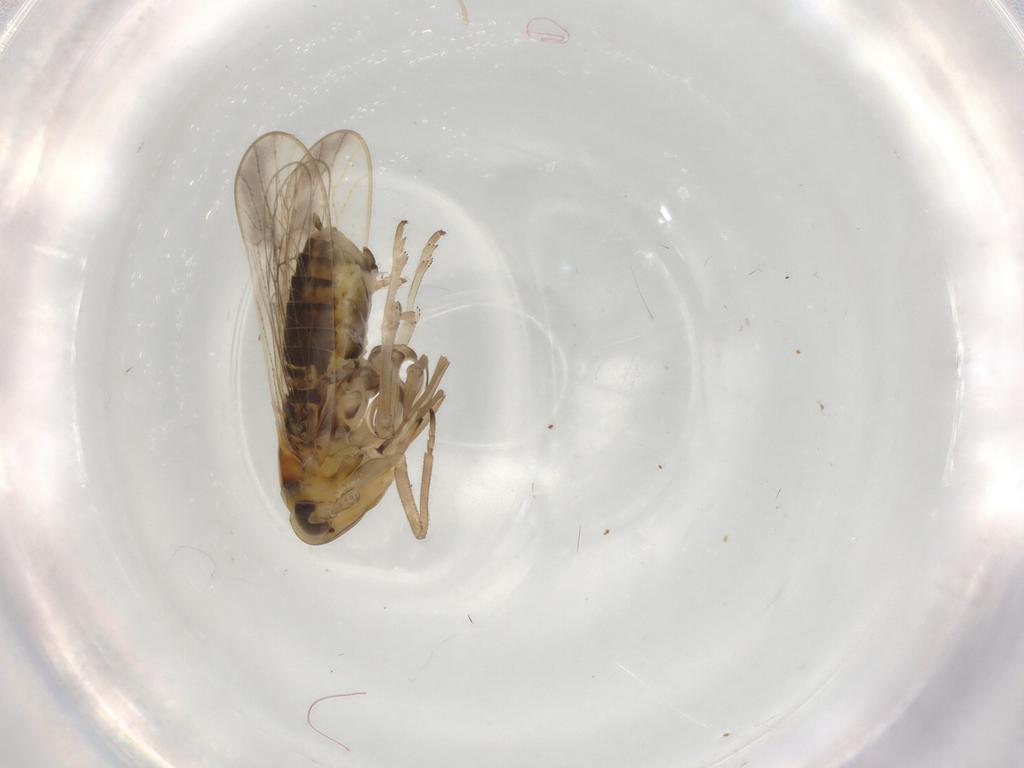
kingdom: Animalia
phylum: Arthropoda
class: Insecta
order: Hemiptera
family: Delphacidae
